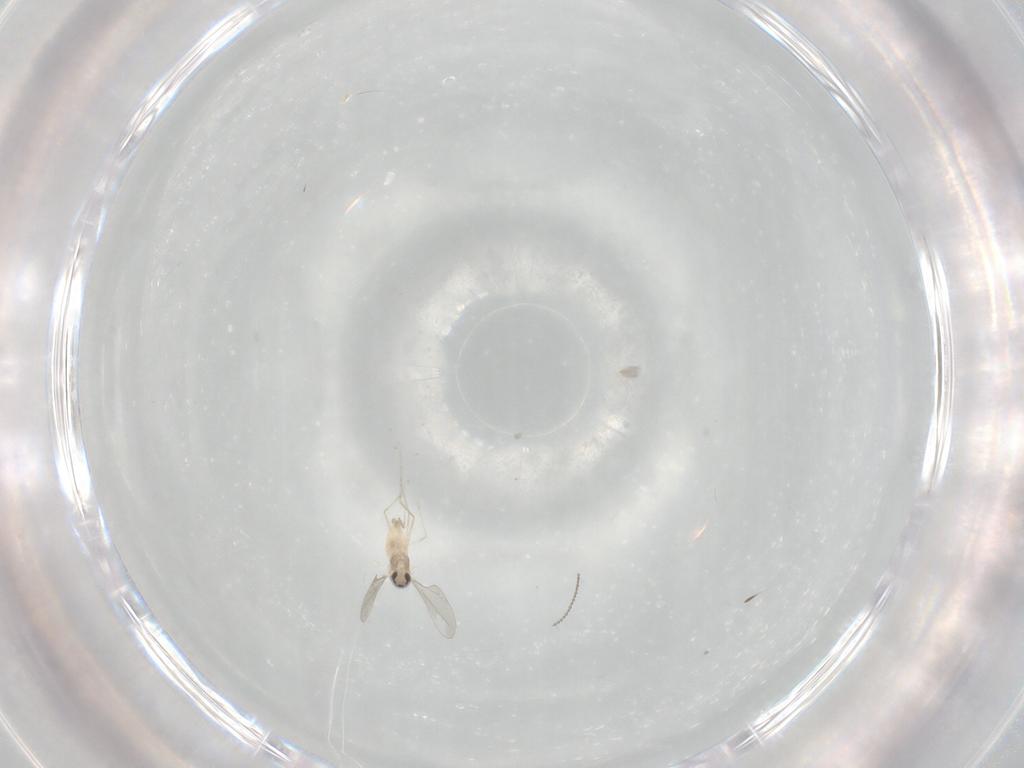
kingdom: Animalia
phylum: Arthropoda
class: Insecta
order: Diptera
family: Cecidomyiidae
